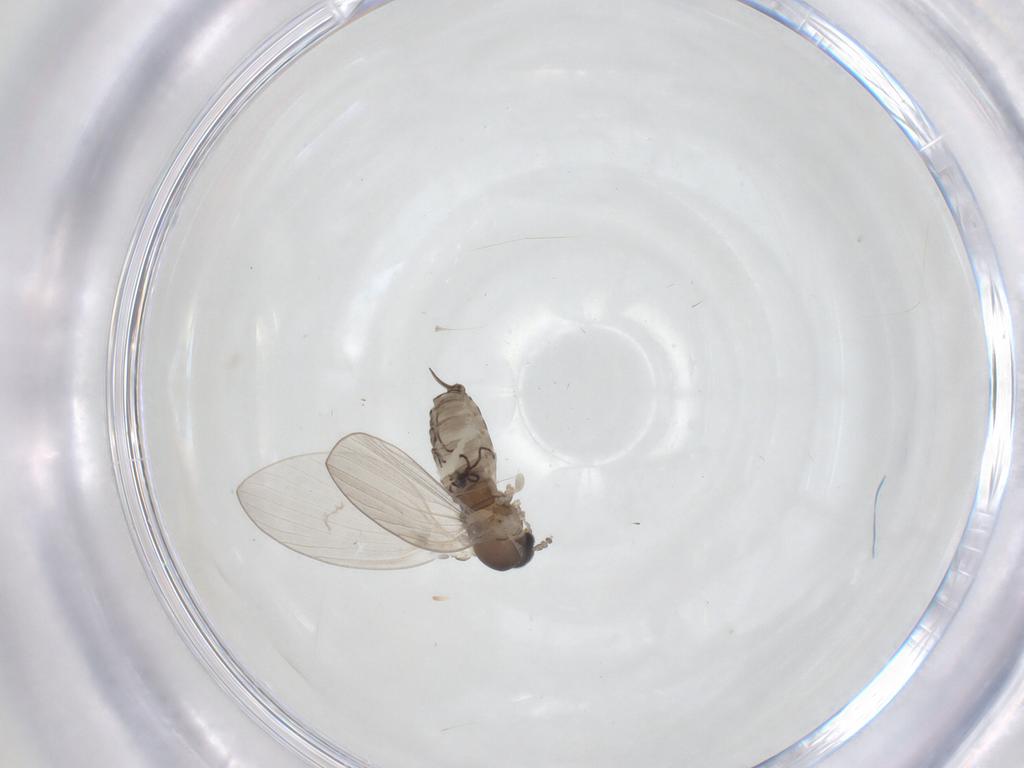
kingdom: Animalia
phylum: Arthropoda
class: Insecta
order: Diptera
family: Psychodidae
